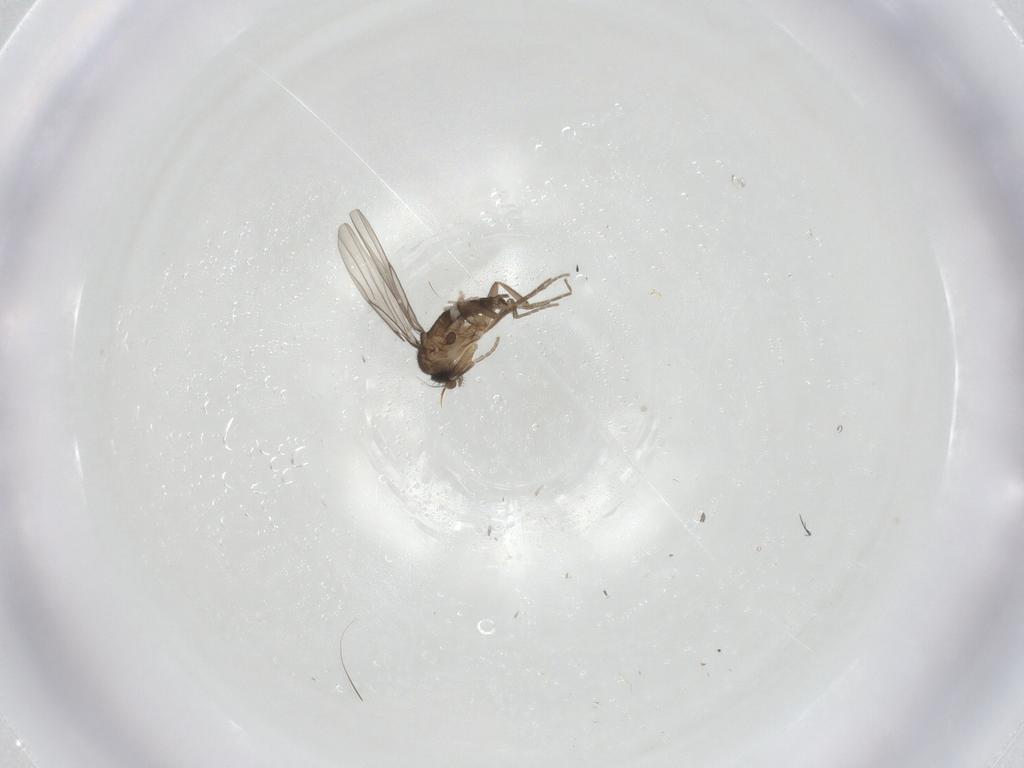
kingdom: Animalia
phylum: Arthropoda
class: Insecta
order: Diptera
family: Phoridae
